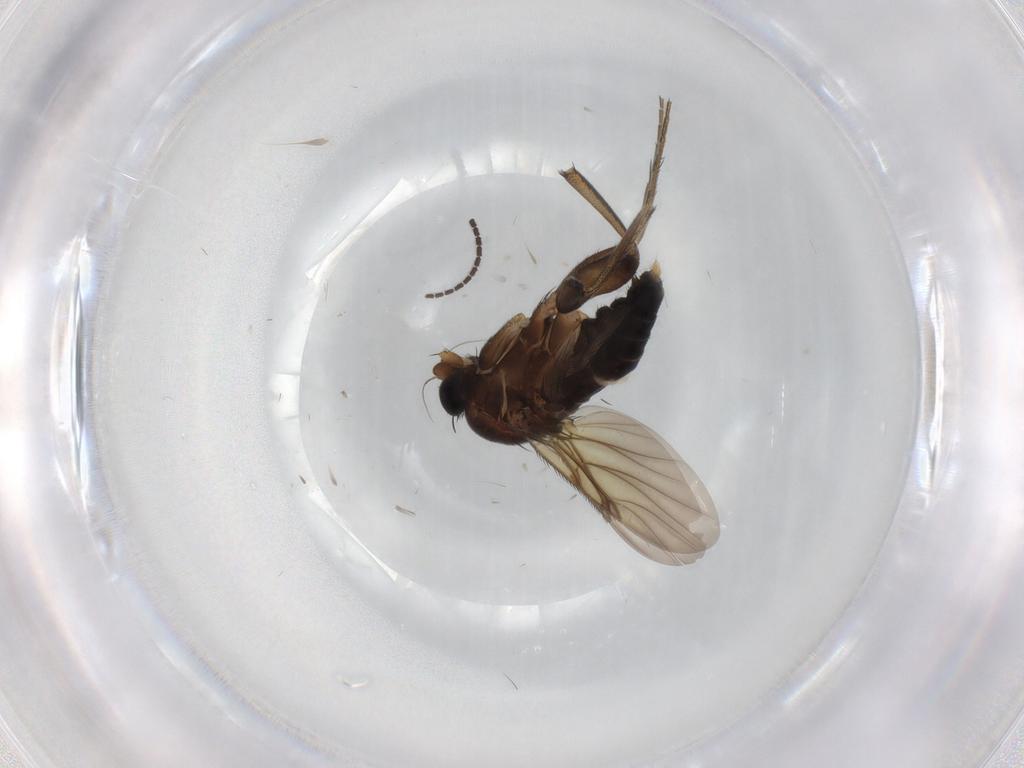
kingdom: Animalia
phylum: Arthropoda
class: Insecta
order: Diptera
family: Phoridae
